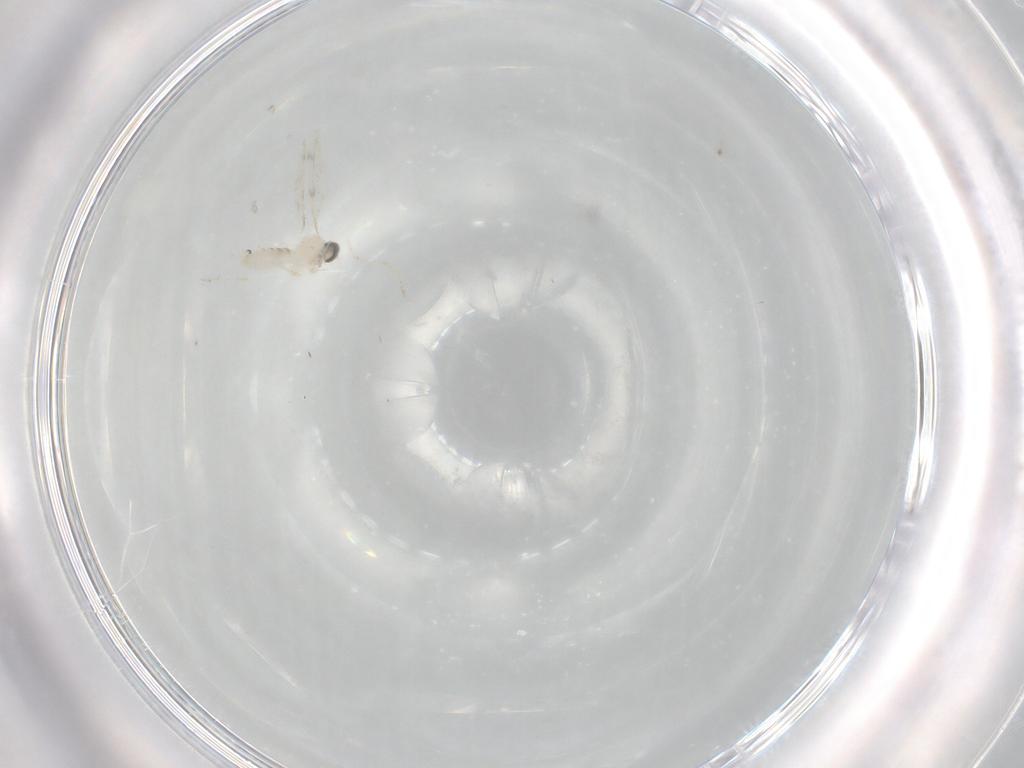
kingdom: Animalia
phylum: Arthropoda
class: Insecta
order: Diptera
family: Cecidomyiidae
